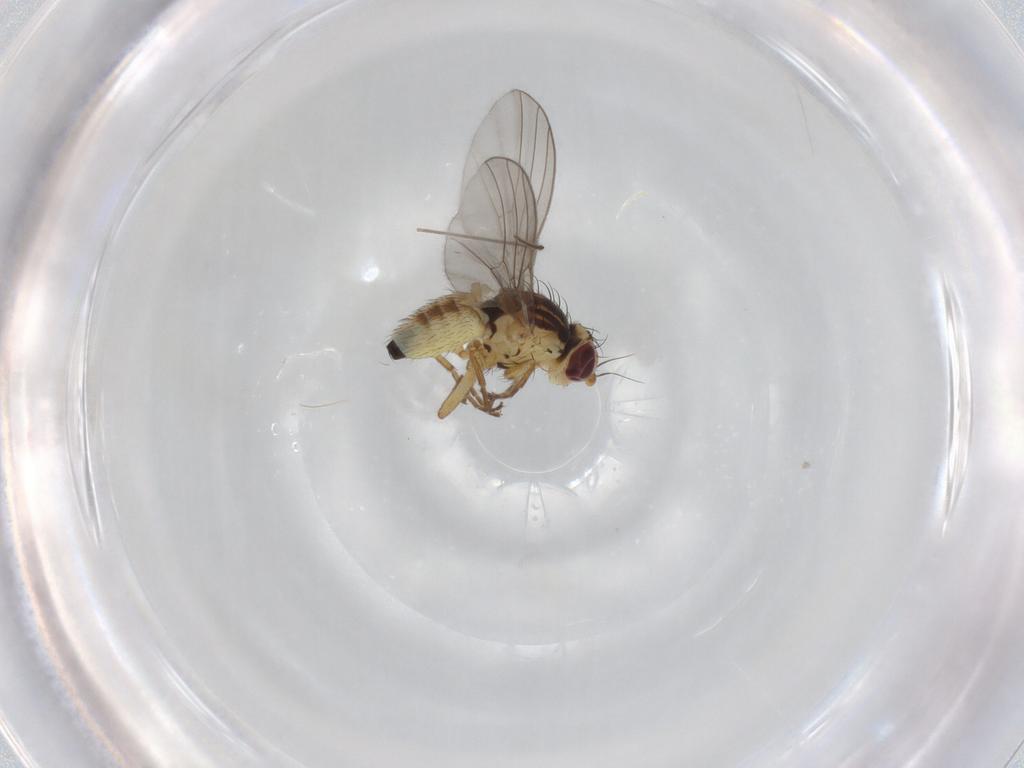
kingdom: Animalia
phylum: Arthropoda
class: Insecta
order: Diptera
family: Agromyzidae
